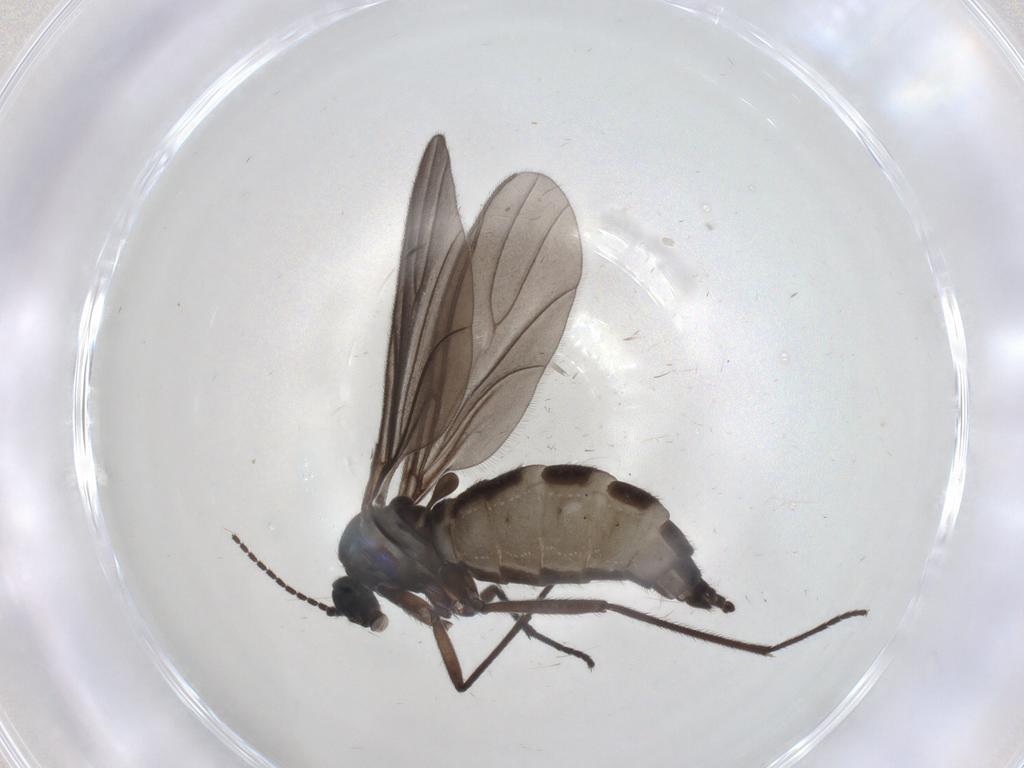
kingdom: Animalia
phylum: Arthropoda
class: Insecta
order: Diptera
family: Sciaridae
